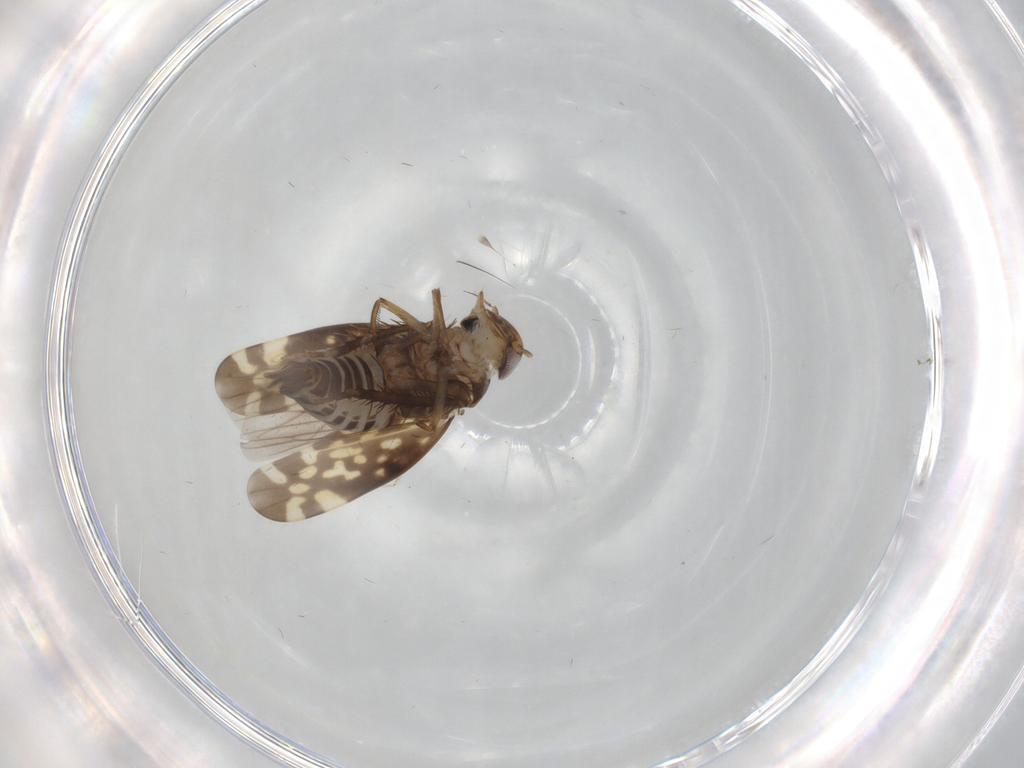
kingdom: Animalia
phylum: Arthropoda
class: Insecta
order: Hemiptera
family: Cicadellidae
